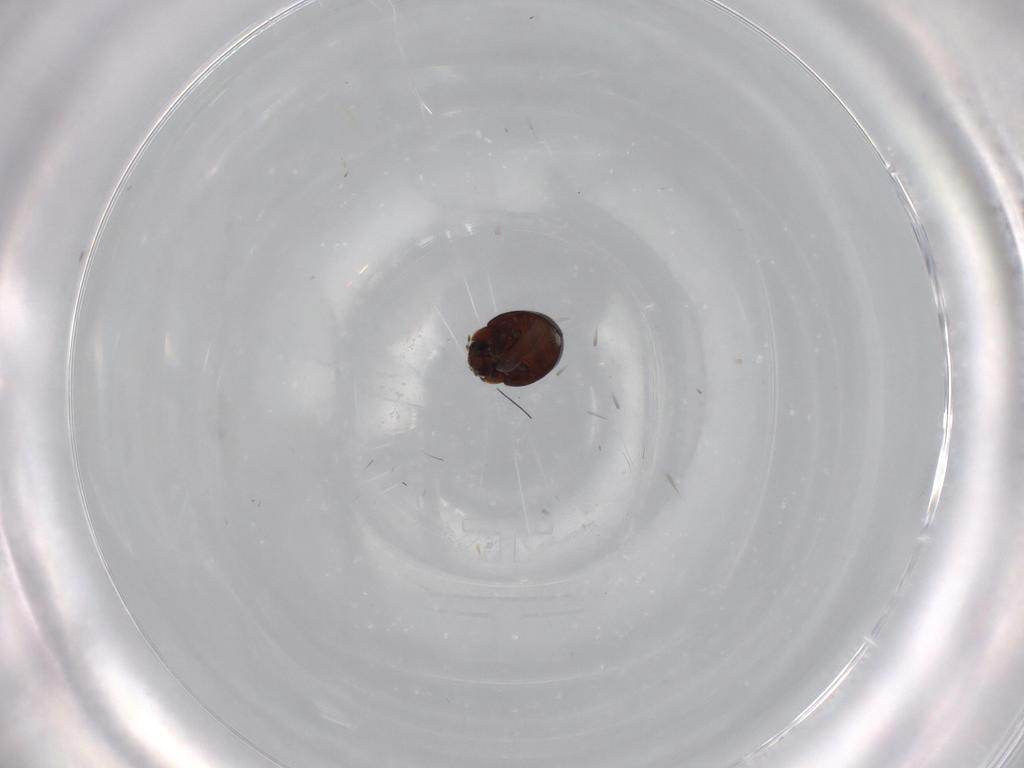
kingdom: Animalia
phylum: Arthropoda
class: Insecta
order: Coleoptera
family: Coccinellidae
